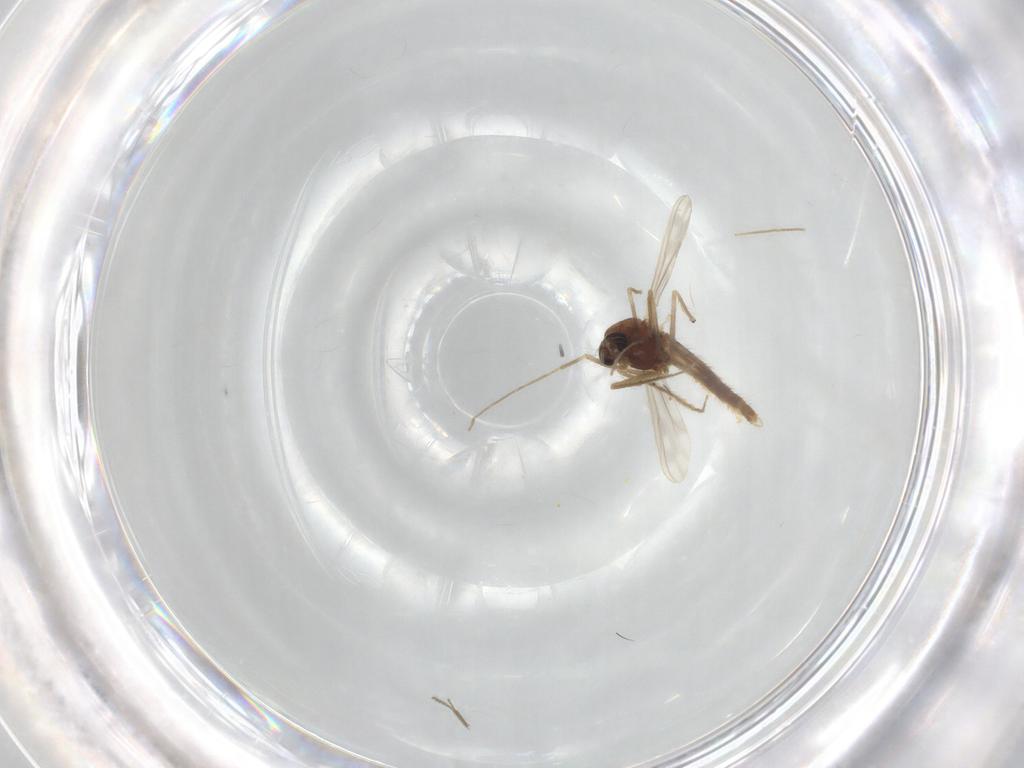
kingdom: Animalia
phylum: Arthropoda
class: Insecta
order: Diptera
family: Chironomidae
